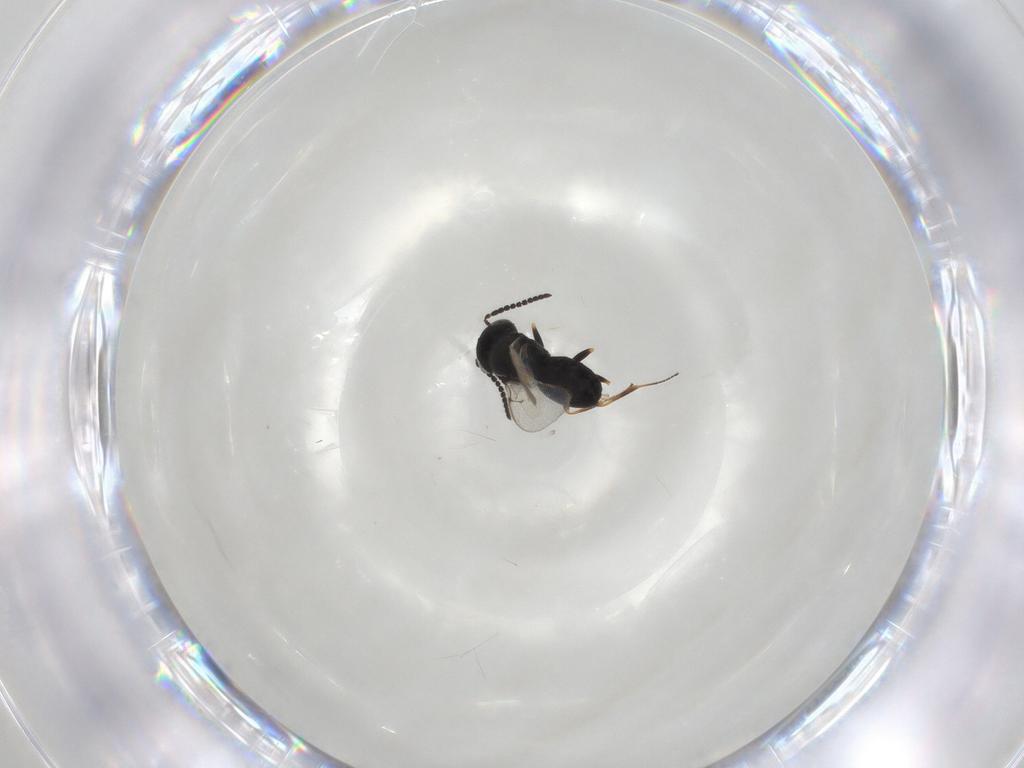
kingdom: Animalia
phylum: Arthropoda
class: Insecta
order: Hymenoptera
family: Scelionidae
